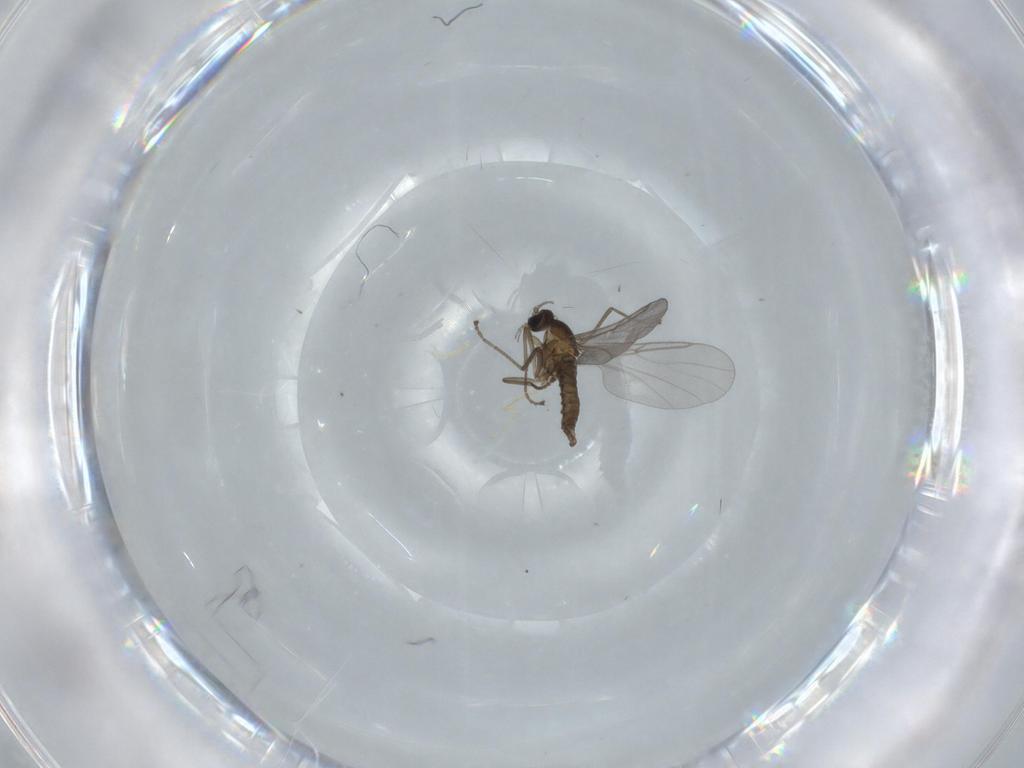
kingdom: Animalia
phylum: Arthropoda
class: Insecta
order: Diptera
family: Cecidomyiidae
